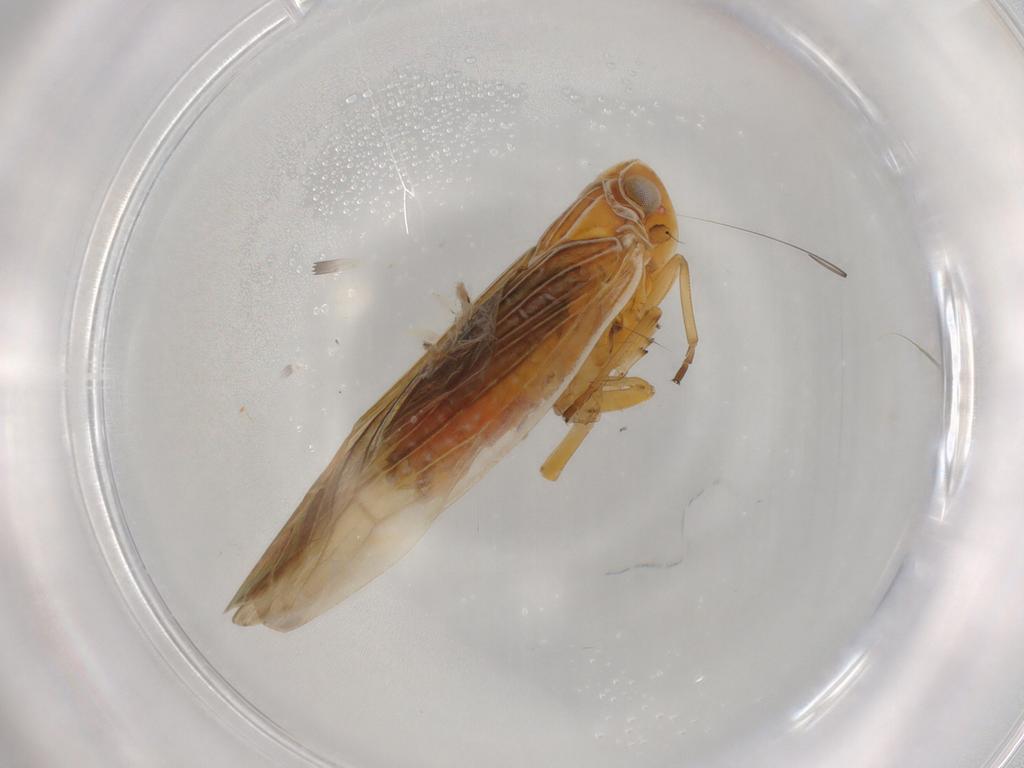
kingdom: Animalia
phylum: Arthropoda
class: Insecta
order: Hemiptera
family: Achilidae
